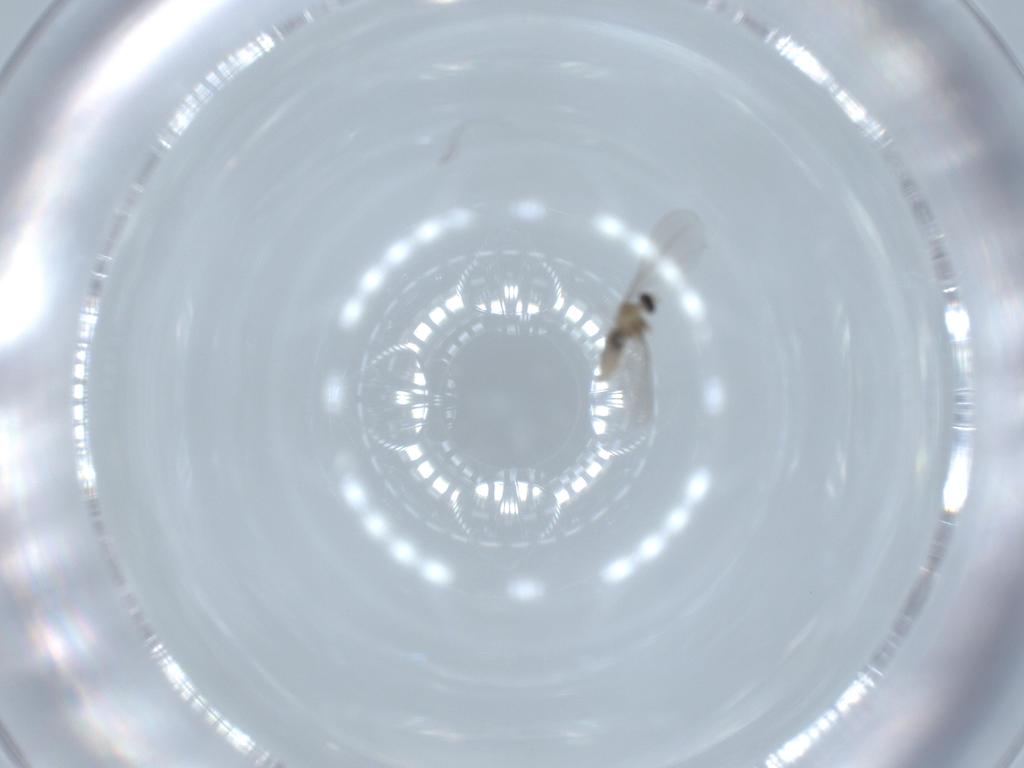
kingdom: Animalia
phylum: Arthropoda
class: Insecta
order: Diptera
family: Cecidomyiidae
